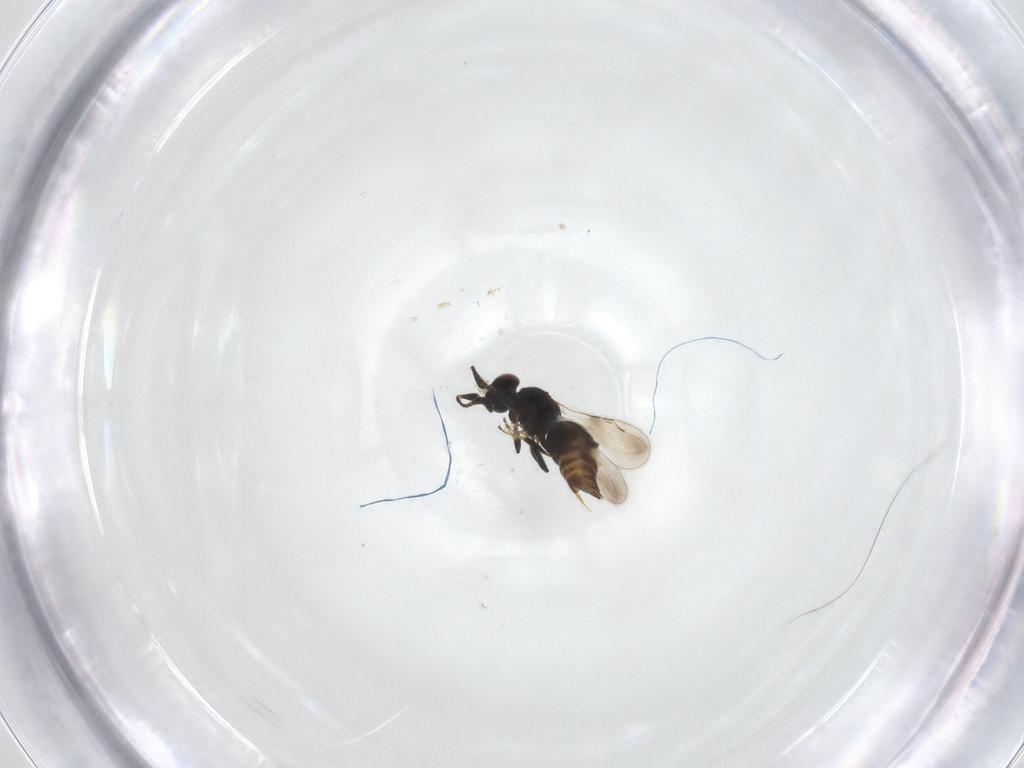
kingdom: Animalia
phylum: Arthropoda
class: Insecta
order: Hymenoptera
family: Ceraphronidae
